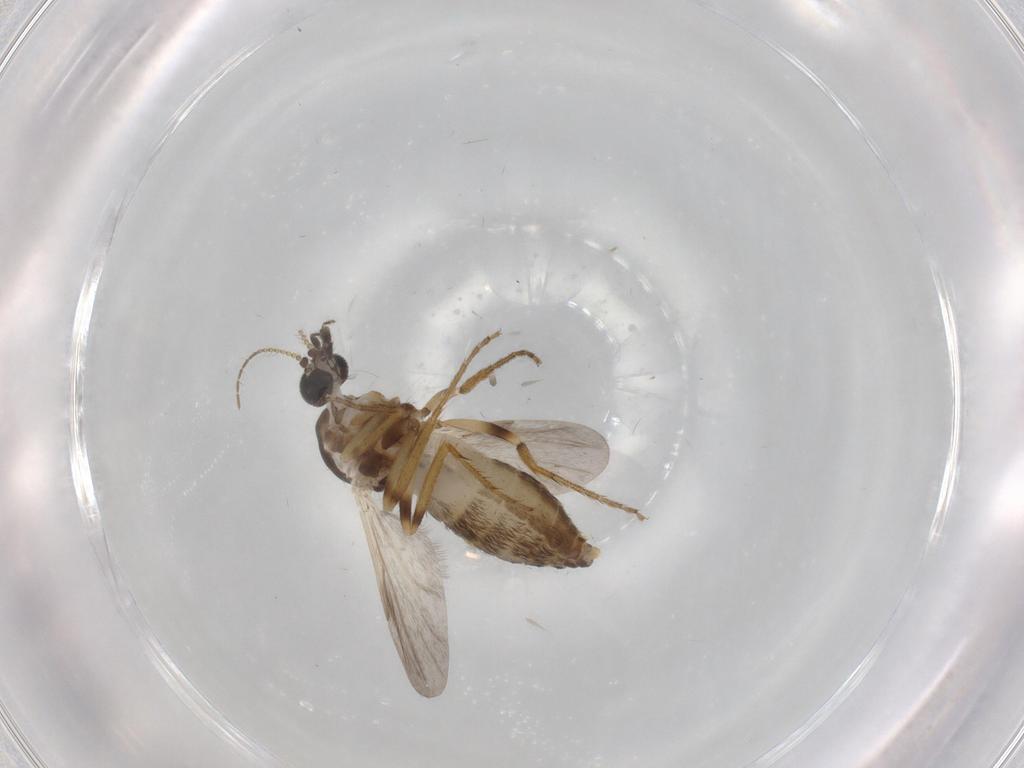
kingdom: Animalia
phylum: Arthropoda
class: Insecta
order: Diptera
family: Ceratopogonidae
